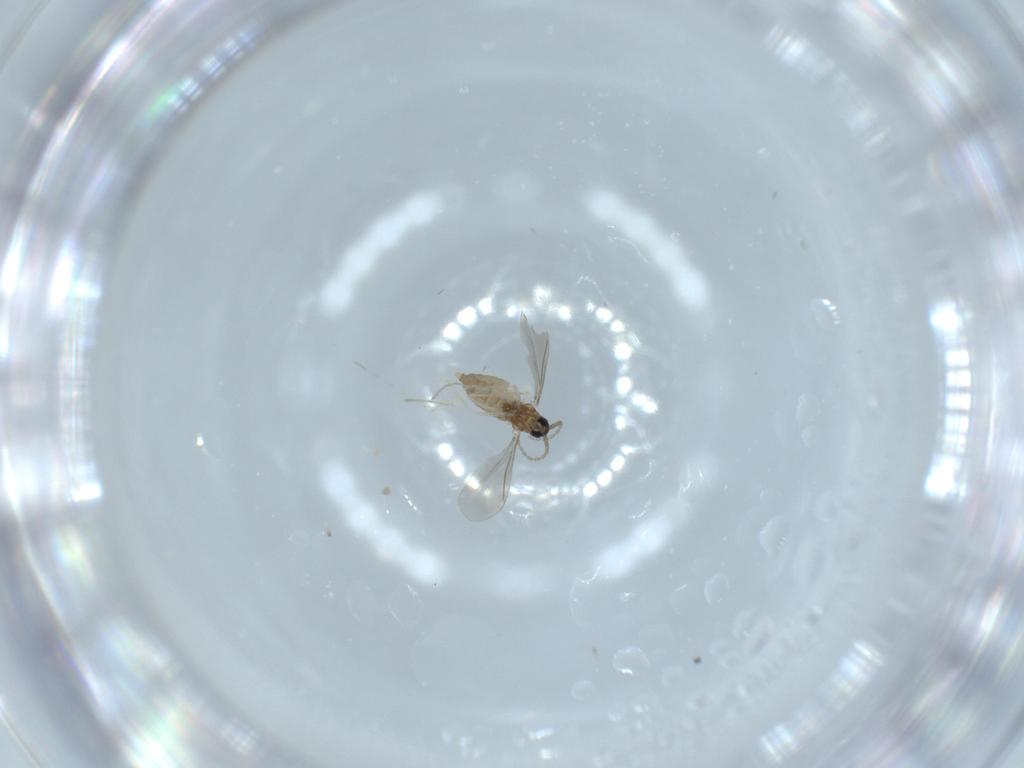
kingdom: Animalia
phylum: Arthropoda
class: Insecta
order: Diptera
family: Cecidomyiidae
